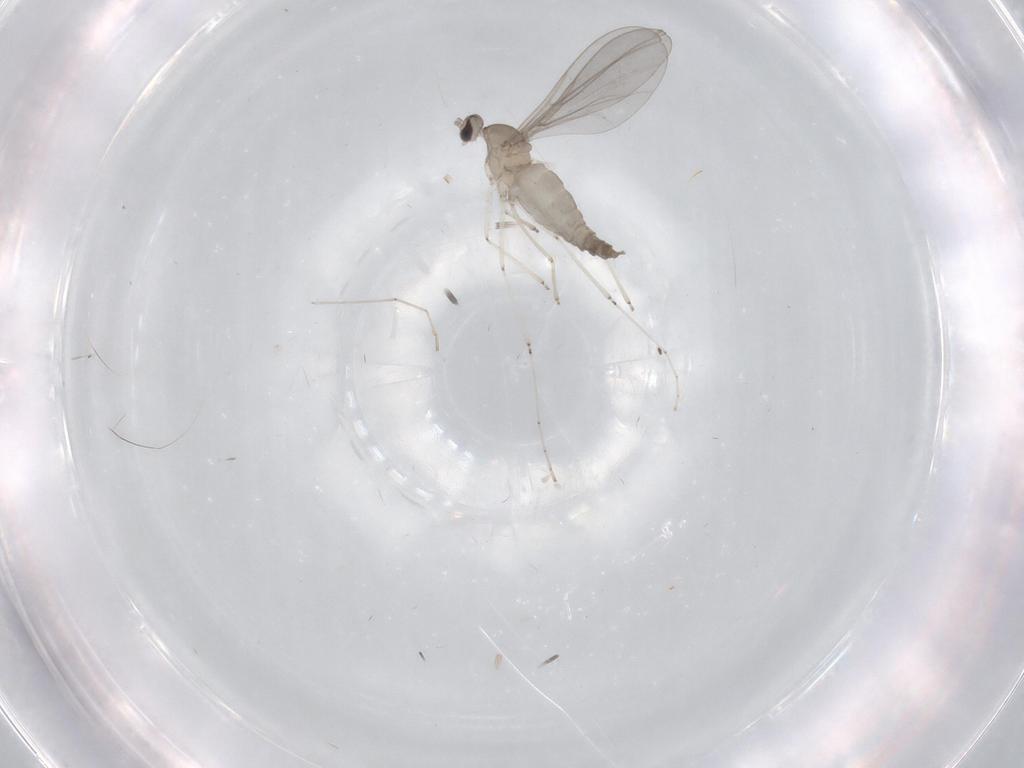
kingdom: Animalia
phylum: Arthropoda
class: Insecta
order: Diptera
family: Cecidomyiidae
